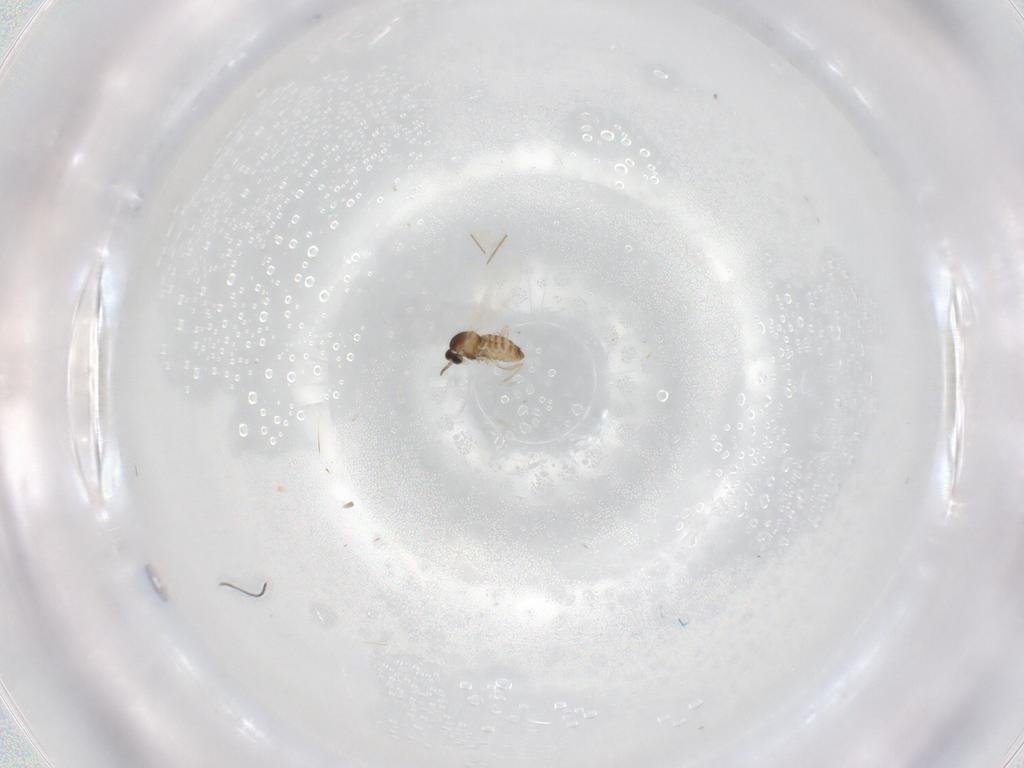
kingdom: Animalia
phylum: Arthropoda
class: Insecta
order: Diptera
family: Cecidomyiidae
